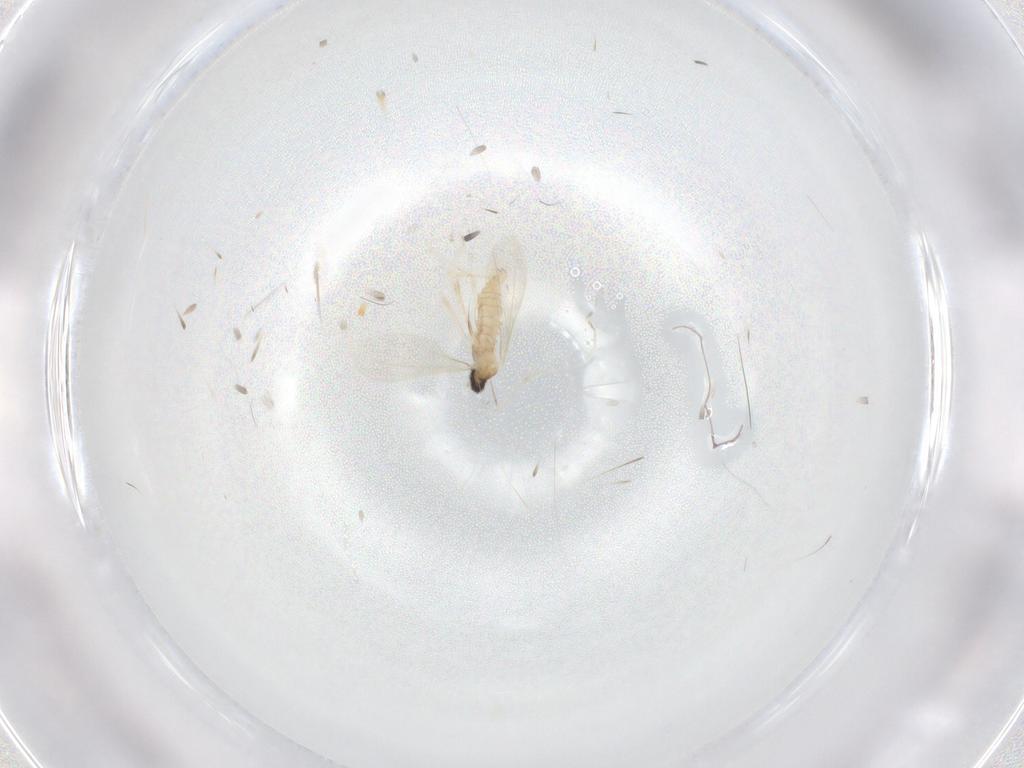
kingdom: Animalia
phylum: Arthropoda
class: Insecta
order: Diptera
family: Cecidomyiidae
